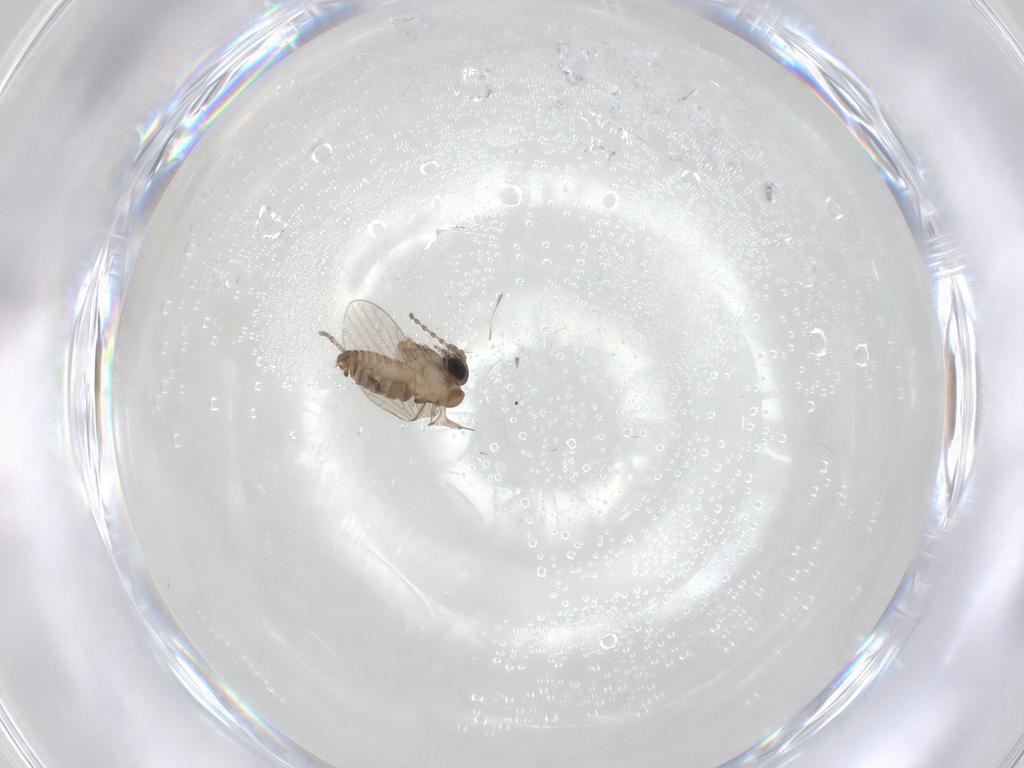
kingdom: Animalia
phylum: Arthropoda
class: Insecta
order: Diptera
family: Psychodidae
